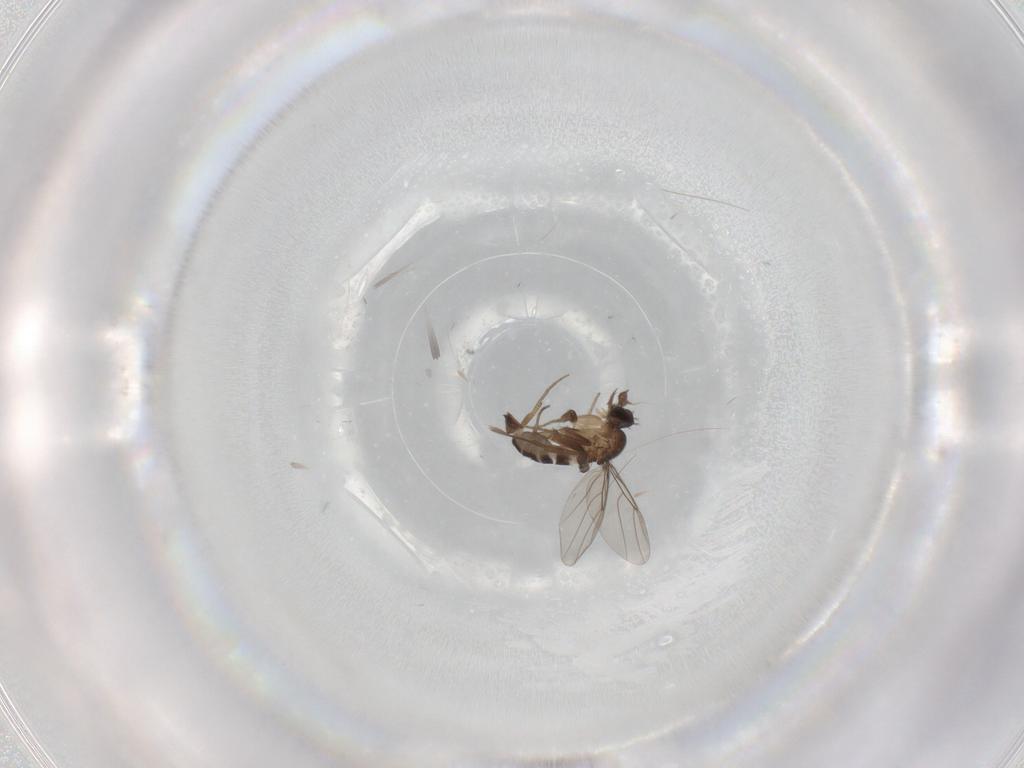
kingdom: Animalia
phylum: Arthropoda
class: Insecta
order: Diptera
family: Phoridae
